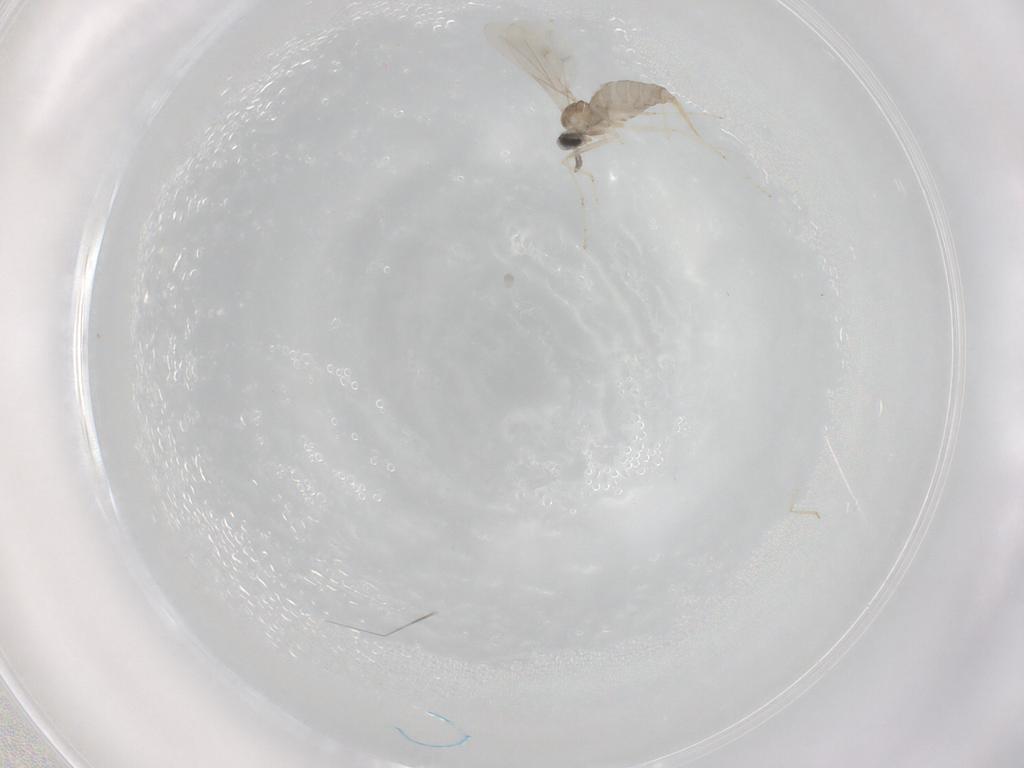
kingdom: Animalia
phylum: Arthropoda
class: Insecta
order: Diptera
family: Cecidomyiidae
